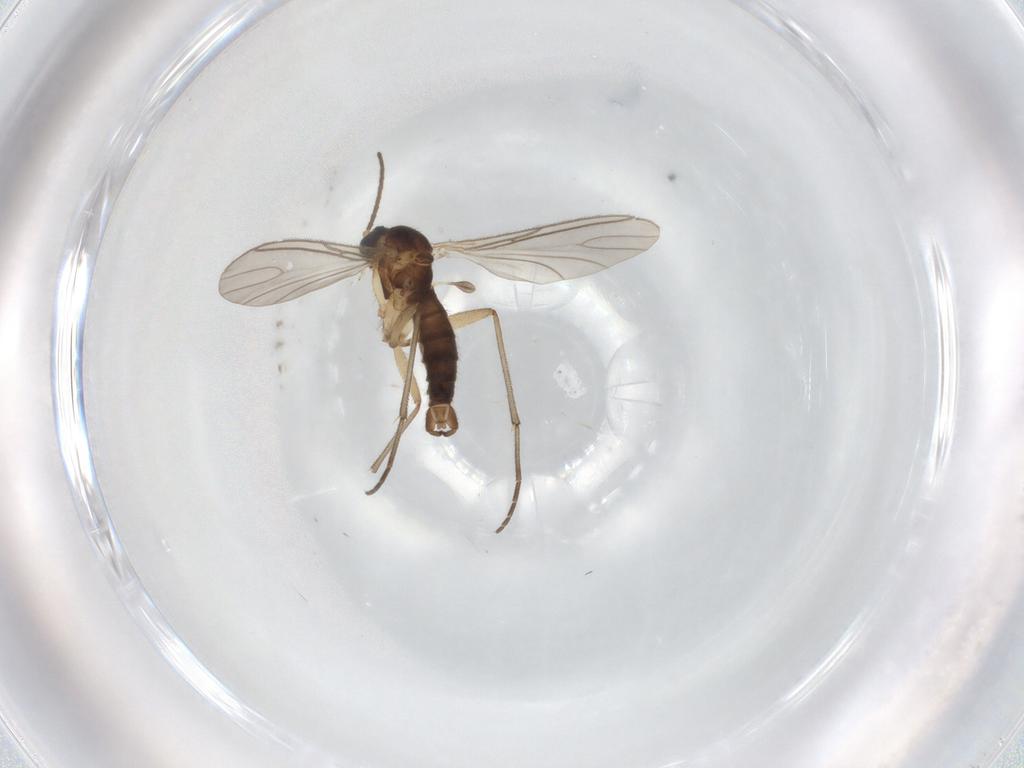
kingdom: Animalia
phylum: Arthropoda
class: Insecta
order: Diptera
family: Sciaridae
